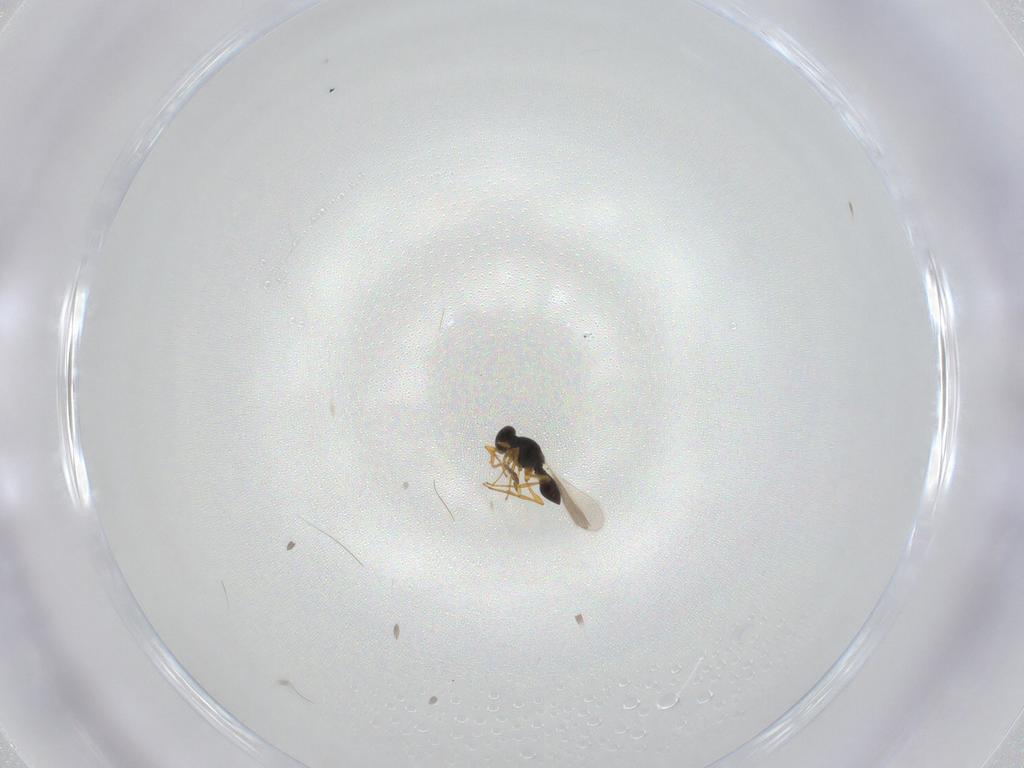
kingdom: Animalia
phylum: Arthropoda
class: Insecta
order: Hymenoptera
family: Scelionidae
